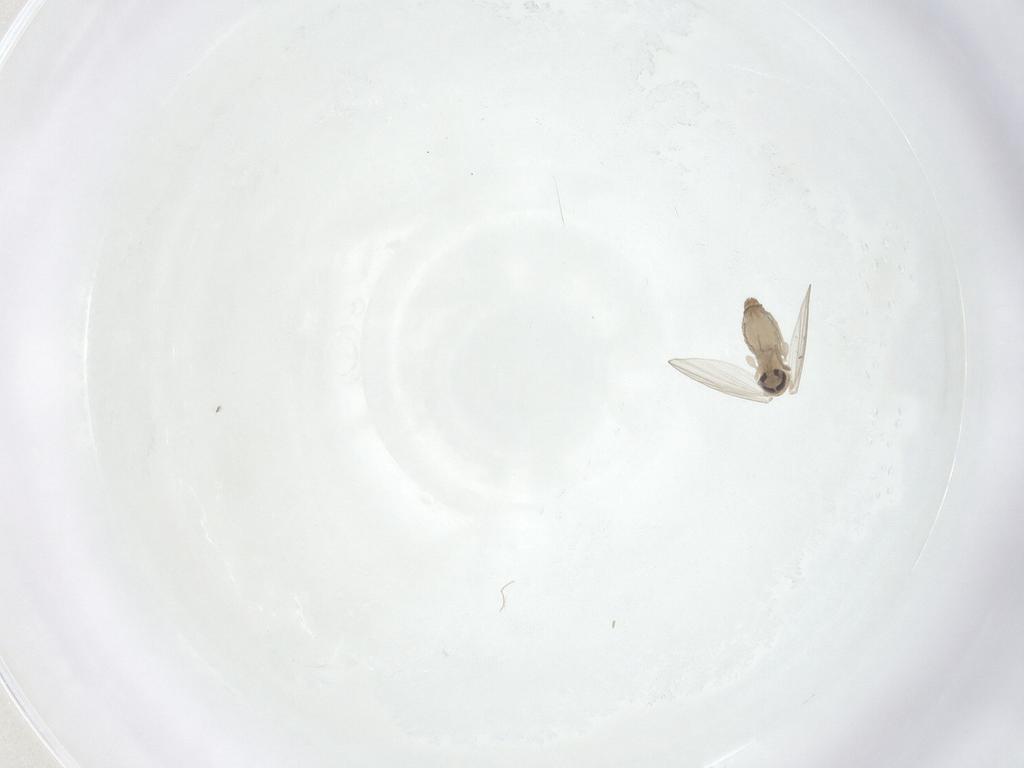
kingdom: Animalia
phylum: Arthropoda
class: Insecta
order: Diptera
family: Psychodidae
